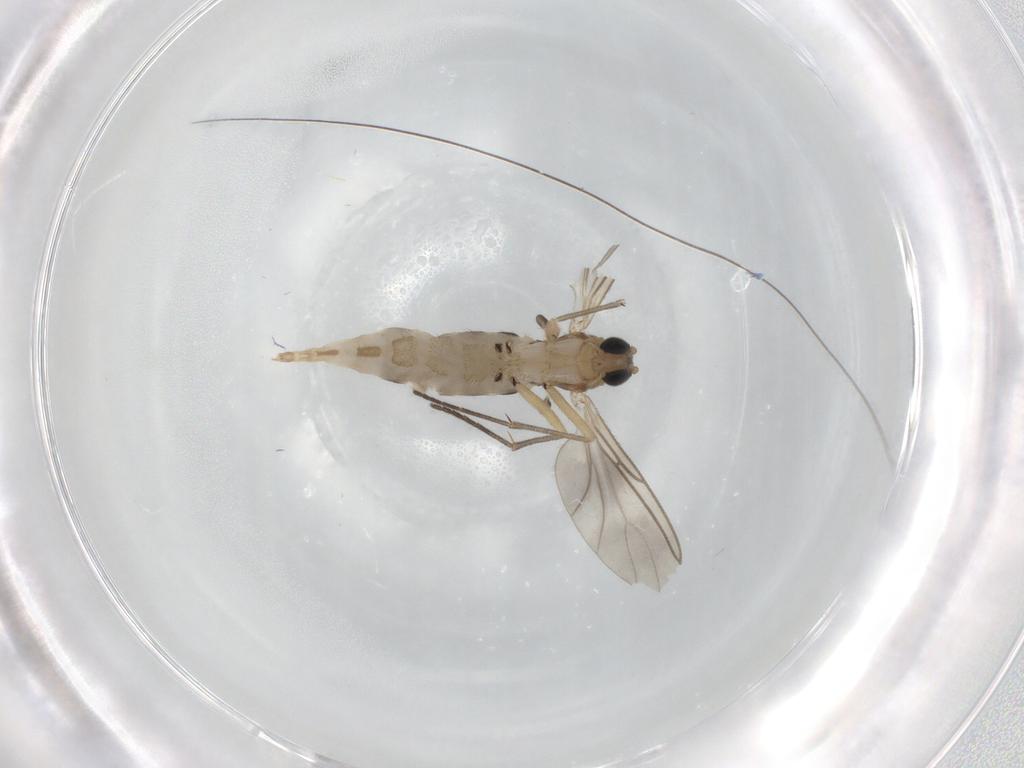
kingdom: Animalia
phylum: Arthropoda
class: Insecta
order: Diptera
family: Sciaridae
